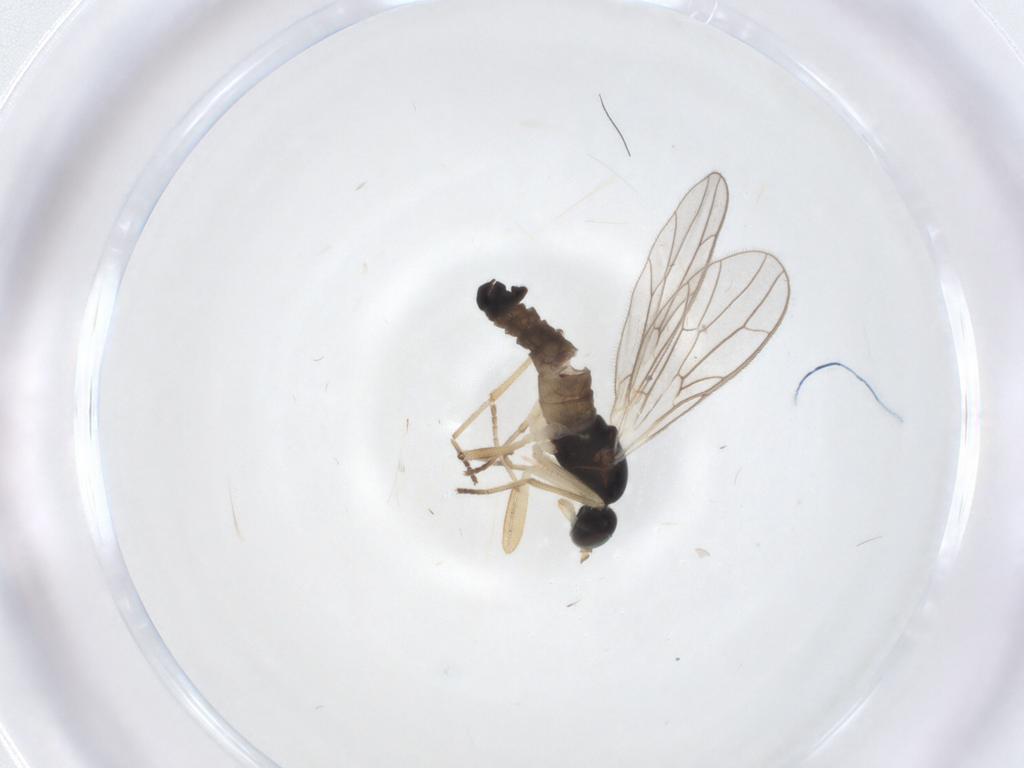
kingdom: Animalia
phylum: Arthropoda
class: Insecta
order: Diptera
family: Empididae
